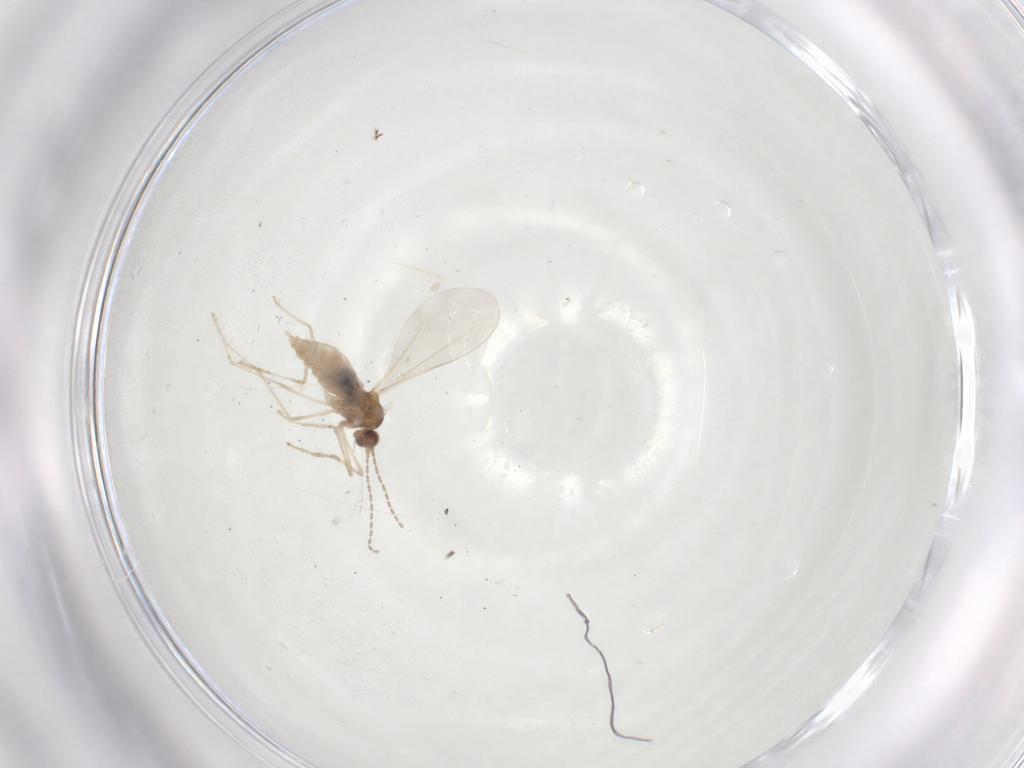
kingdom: Animalia
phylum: Arthropoda
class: Insecta
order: Diptera
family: Cecidomyiidae
